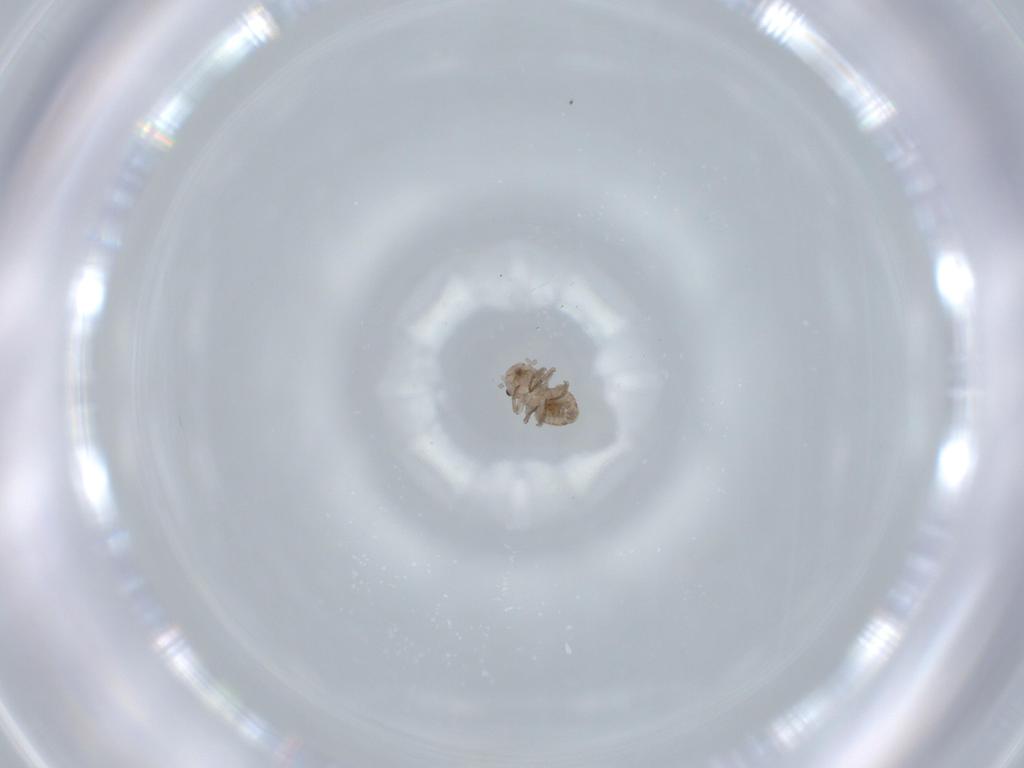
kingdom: Animalia
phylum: Arthropoda
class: Insecta
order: Psocodea
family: Psocidae
